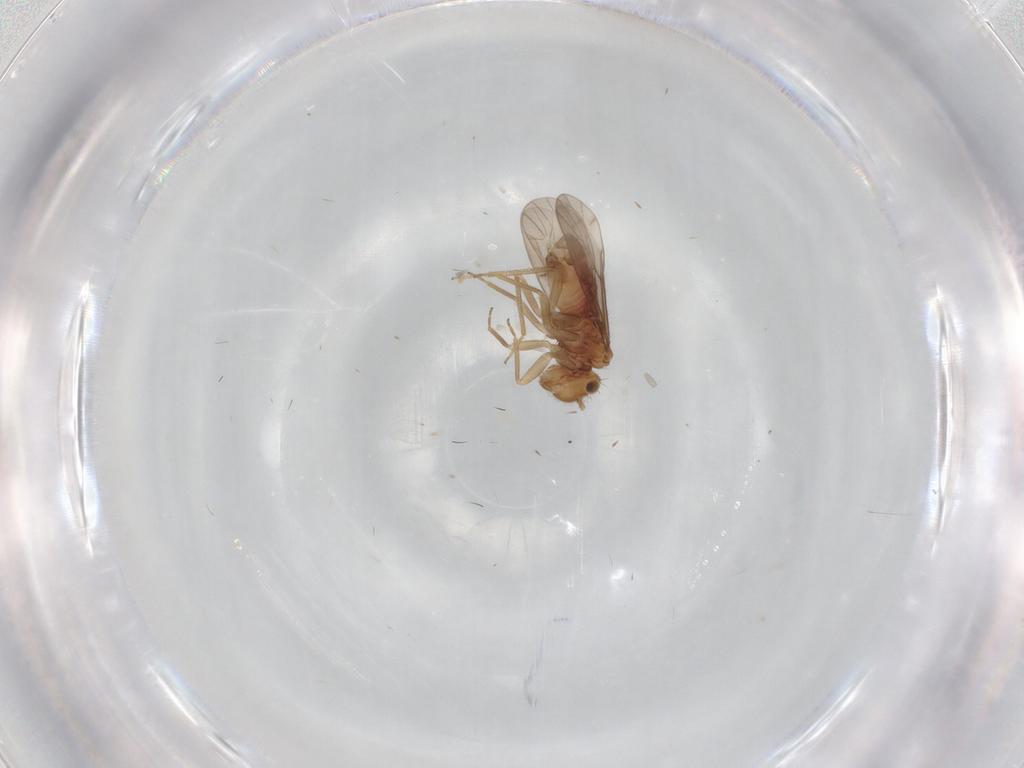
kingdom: Animalia
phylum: Arthropoda
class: Insecta
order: Psocodea
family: Ectopsocidae
